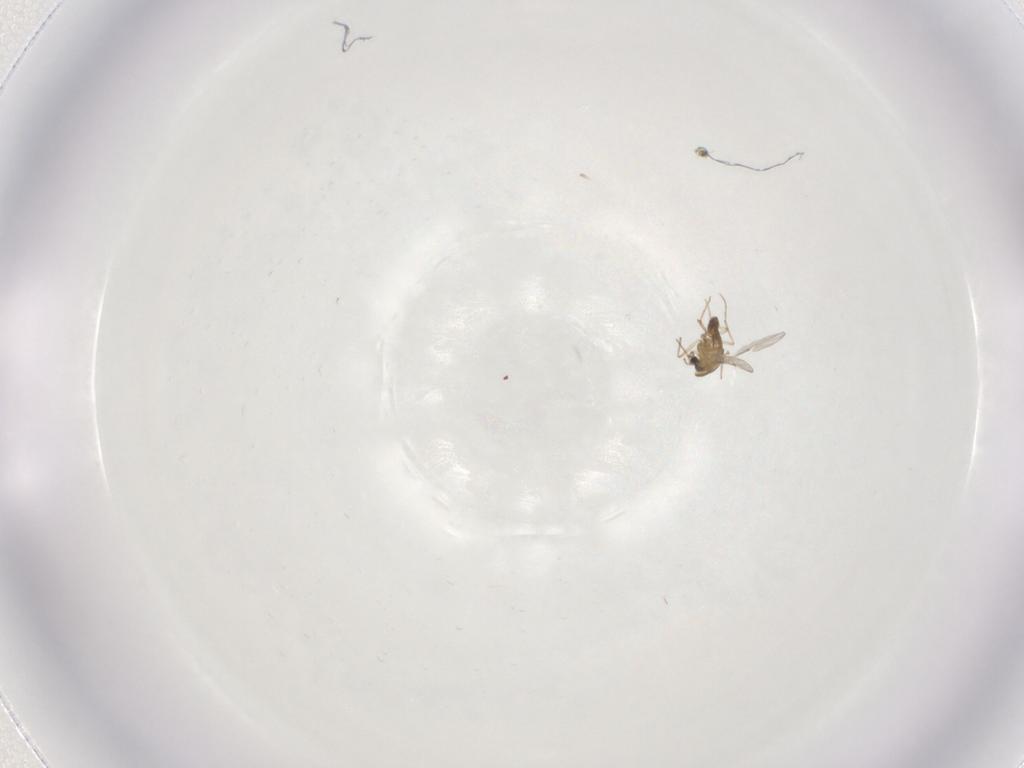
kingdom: Animalia
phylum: Arthropoda
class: Insecta
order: Diptera
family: Chironomidae
